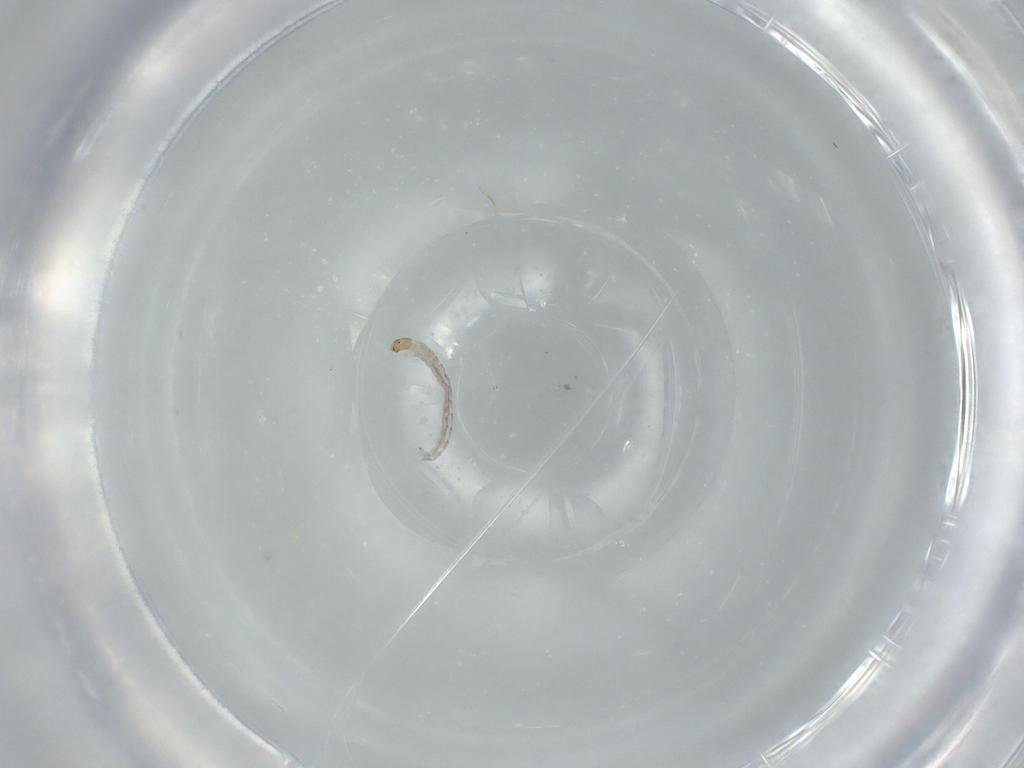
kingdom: Animalia
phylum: Arthropoda
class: Insecta
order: Diptera
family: Chironomidae
